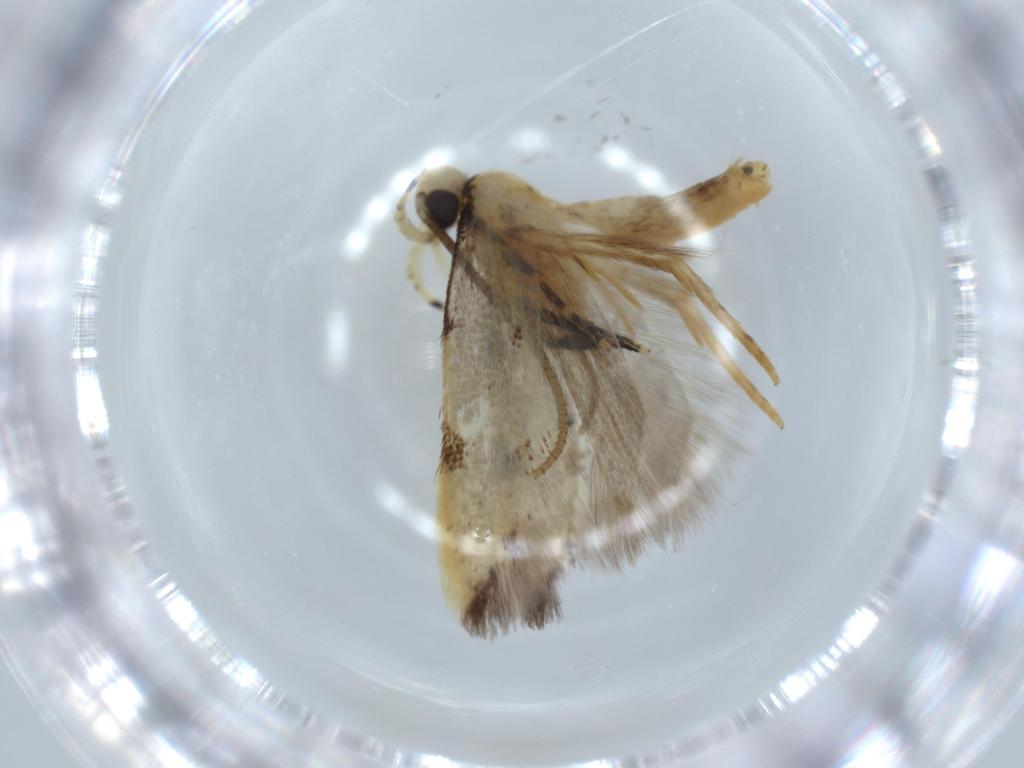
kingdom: Animalia
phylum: Arthropoda
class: Insecta
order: Lepidoptera
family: Autostichidae
